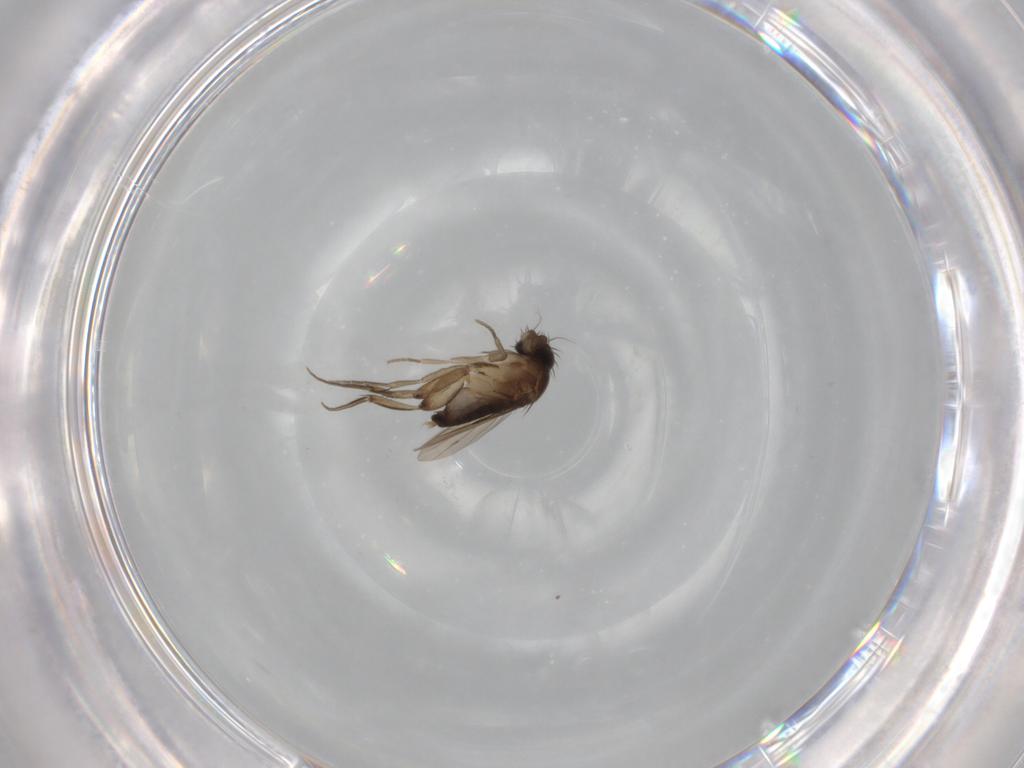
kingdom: Animalia
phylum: Arthropoda
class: Insecta
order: Diptera
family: Phoridae
